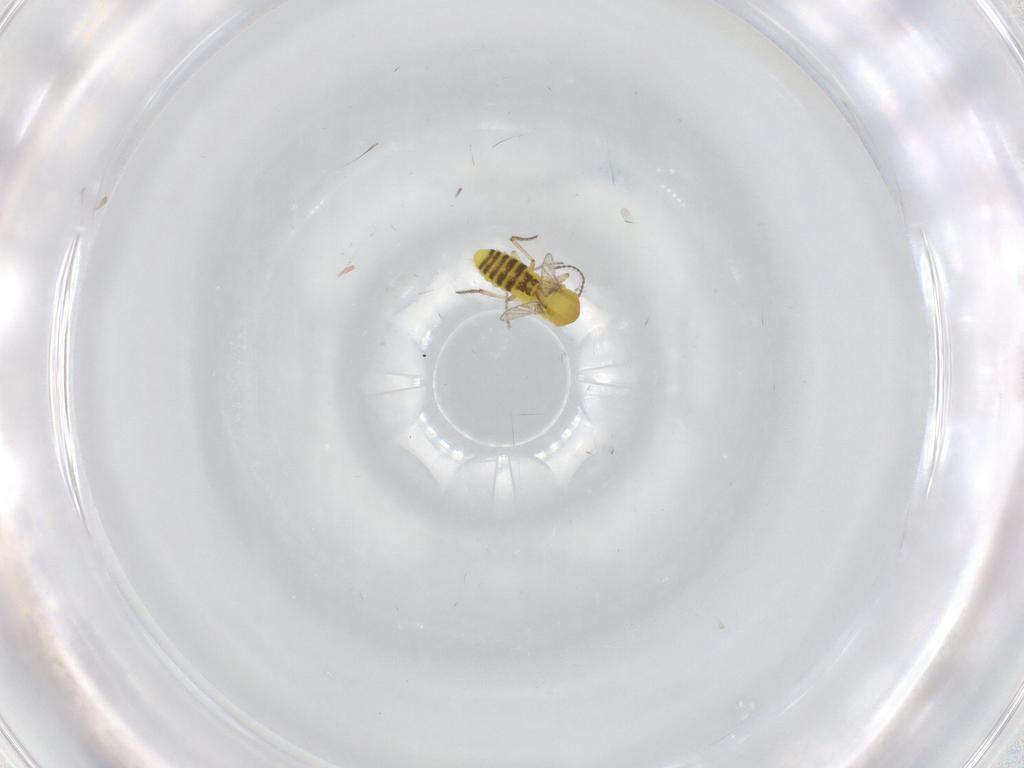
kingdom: Animalia
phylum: Arthropoda
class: Insecta
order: Diptera
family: Ceratopogonidae
